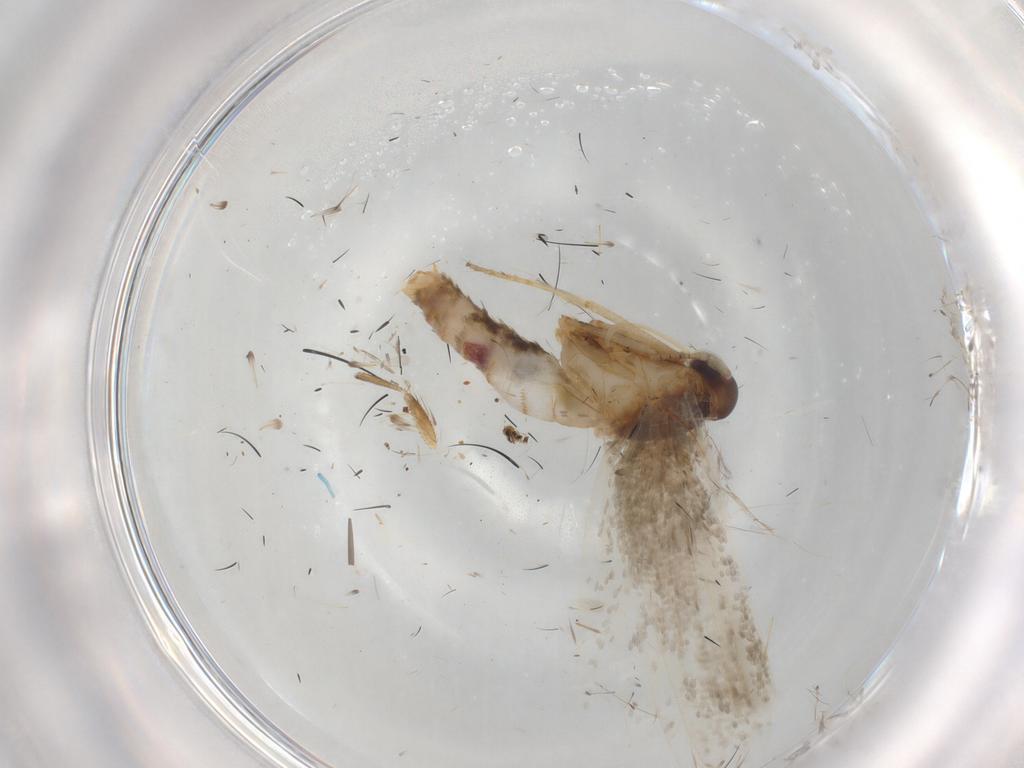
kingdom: Animalia
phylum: Arthropoda
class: Insecta
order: Lepidoptera
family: Blastobasidae
